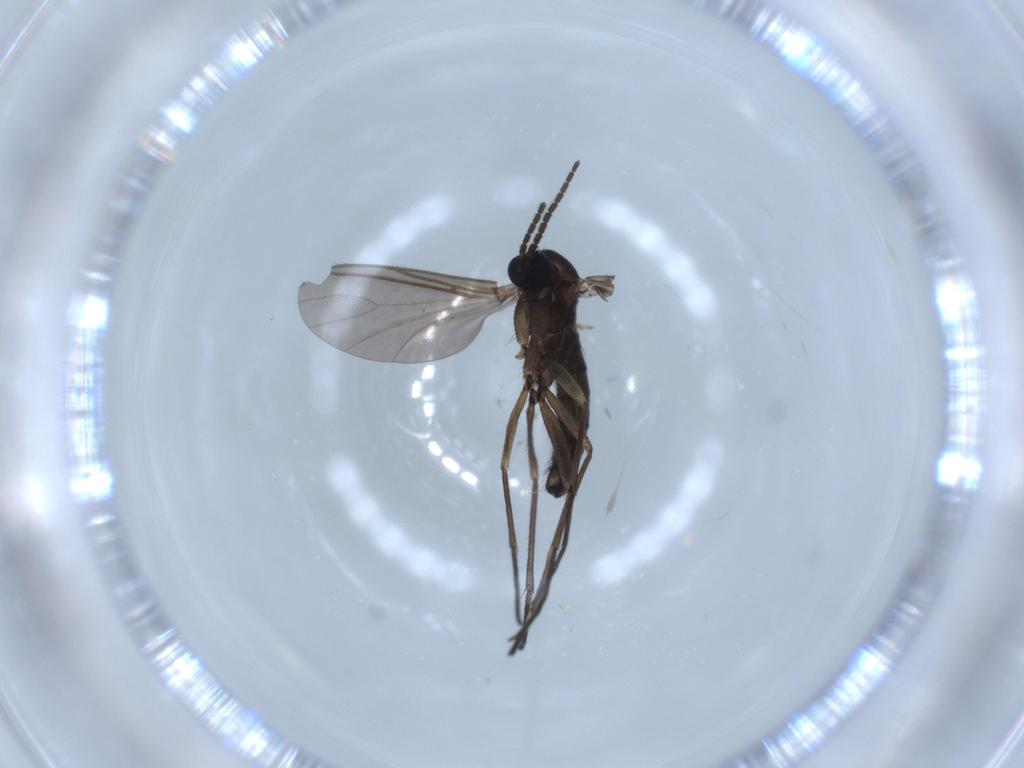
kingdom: Animalia
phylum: Arthropoda
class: Insecta
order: Diptera
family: Sciaridae
